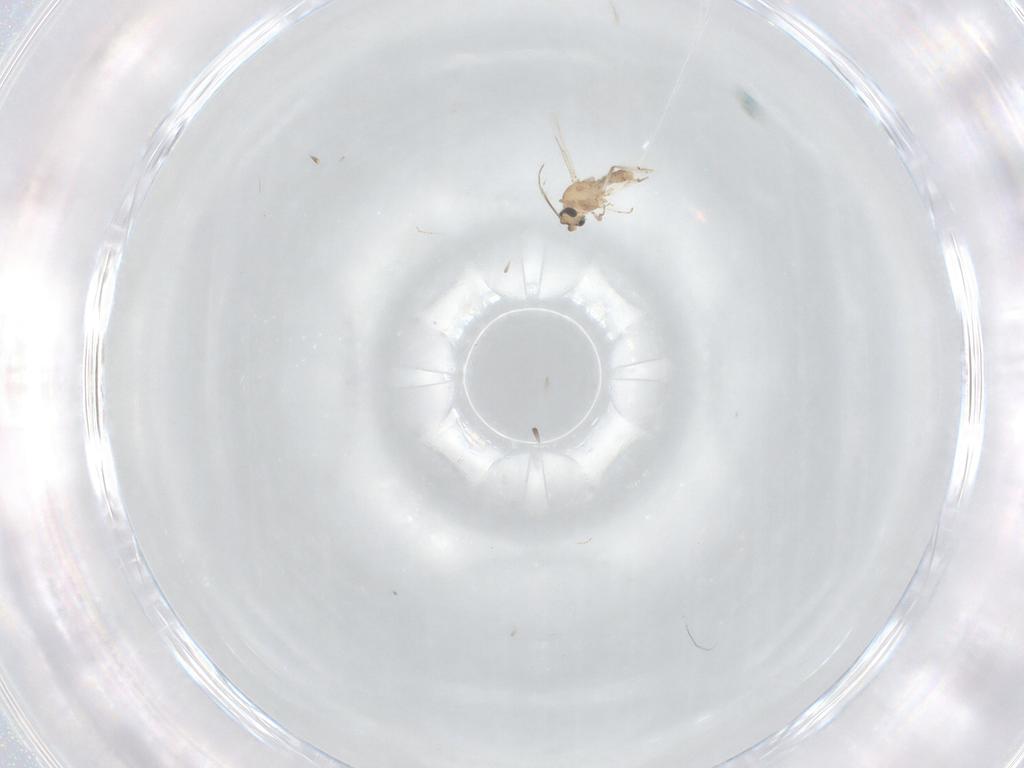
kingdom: Animalia
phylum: Arthropoda
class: Insecta
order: Diptera
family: Ceratopogonidae
